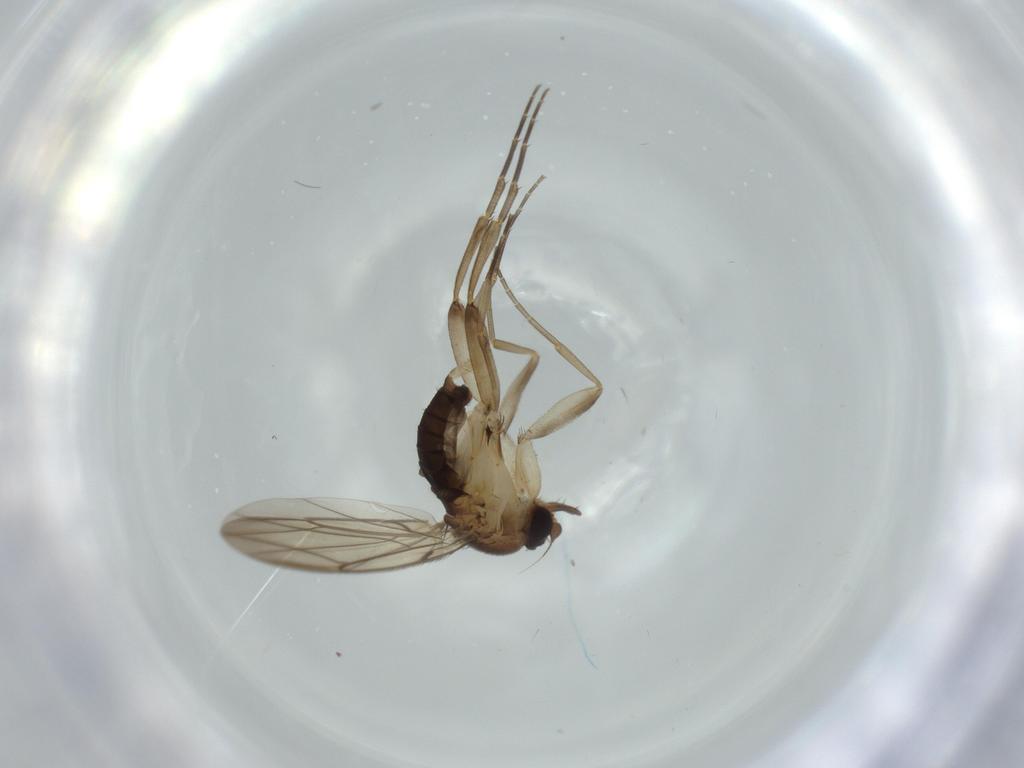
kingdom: Animalia
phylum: Arthropoda
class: Insecta
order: Diptera
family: Phoridae
